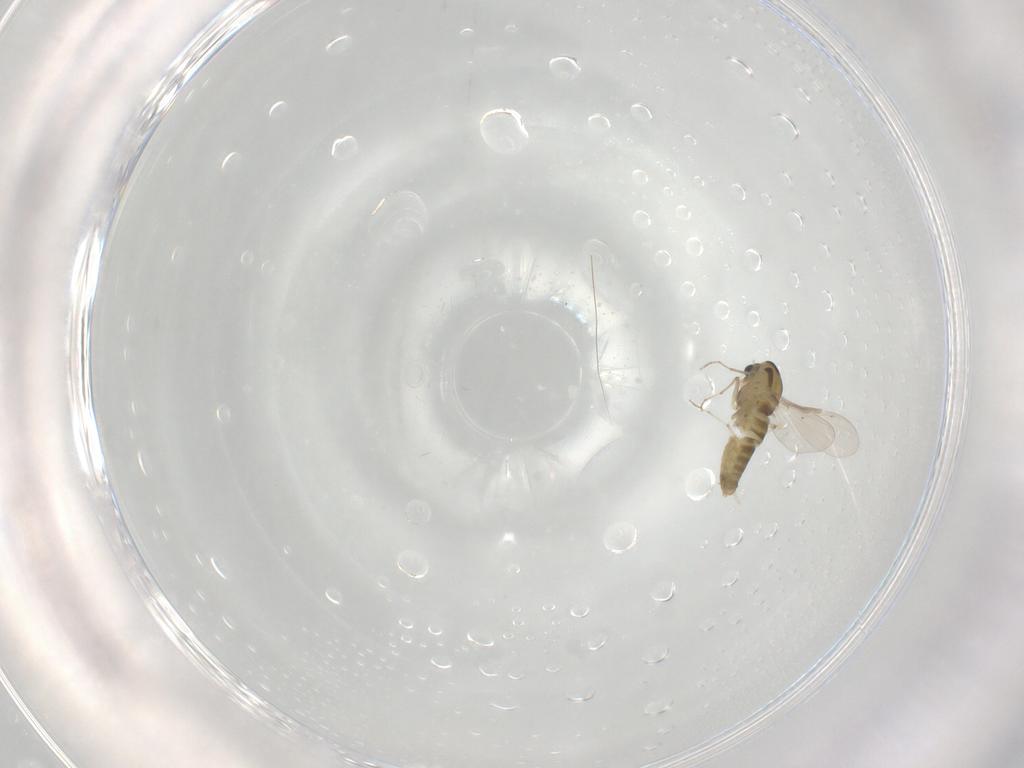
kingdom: Animalia
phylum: Arthropoda
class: Insecta
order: Diptera
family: Chironomidae
